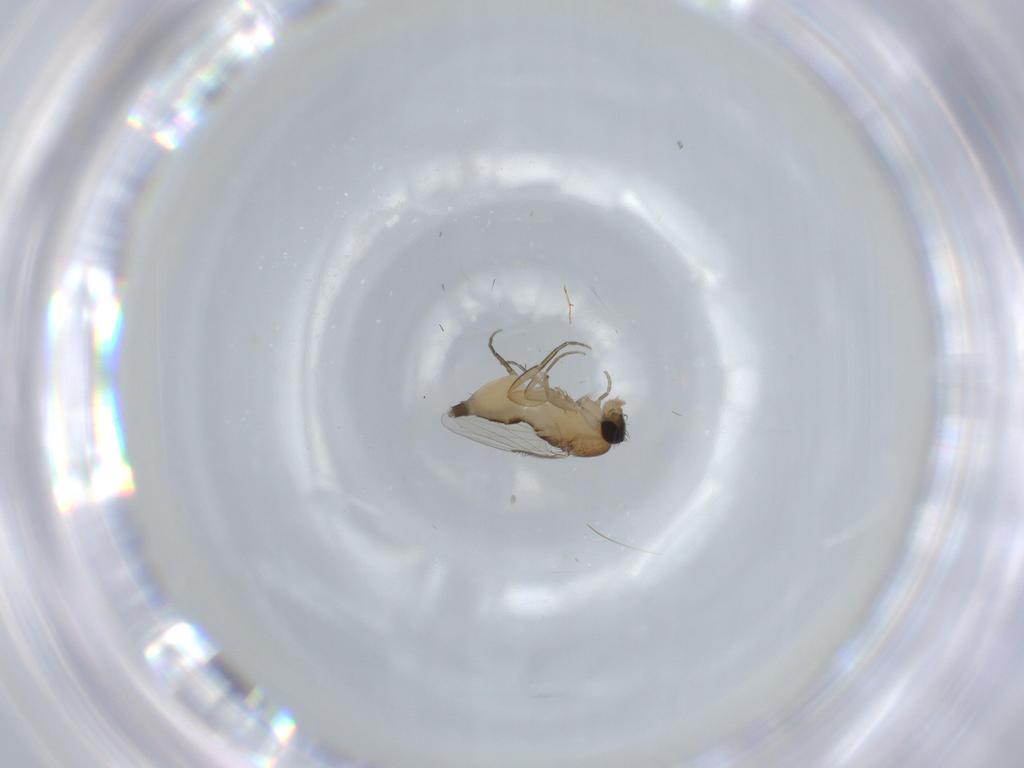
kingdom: Animalia
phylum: Arthropoda
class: Insecta
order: Diptera
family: Phoridae
